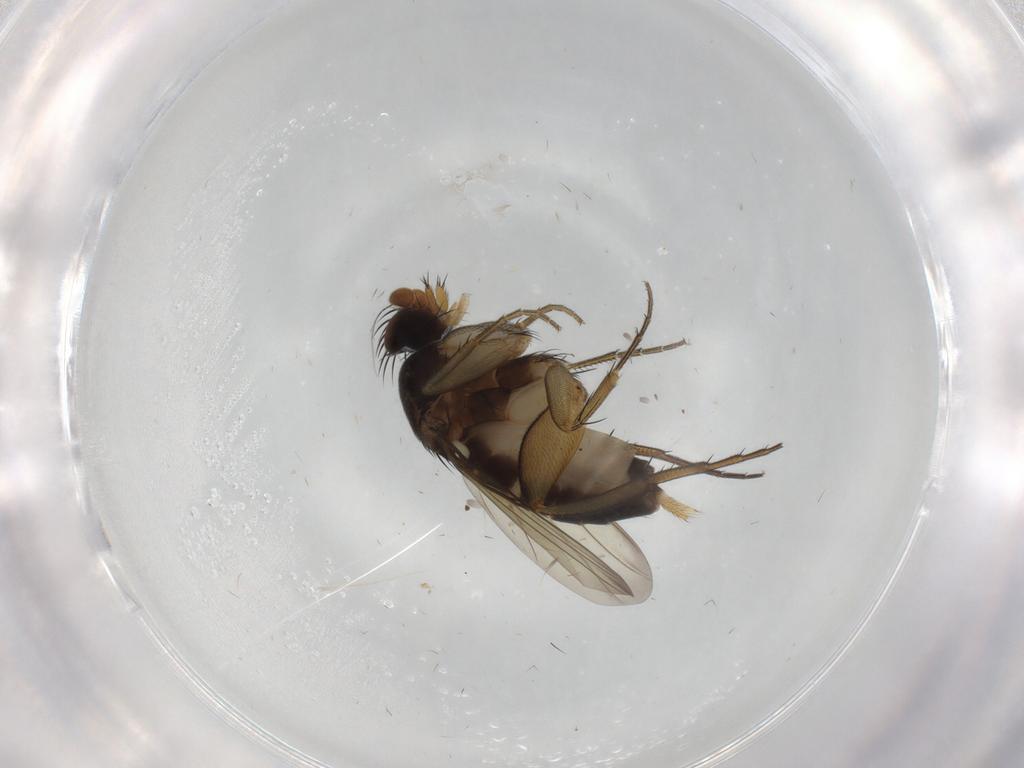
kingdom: Animalia
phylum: Arthropoda
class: Insecta
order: Diptera
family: Phoridae
